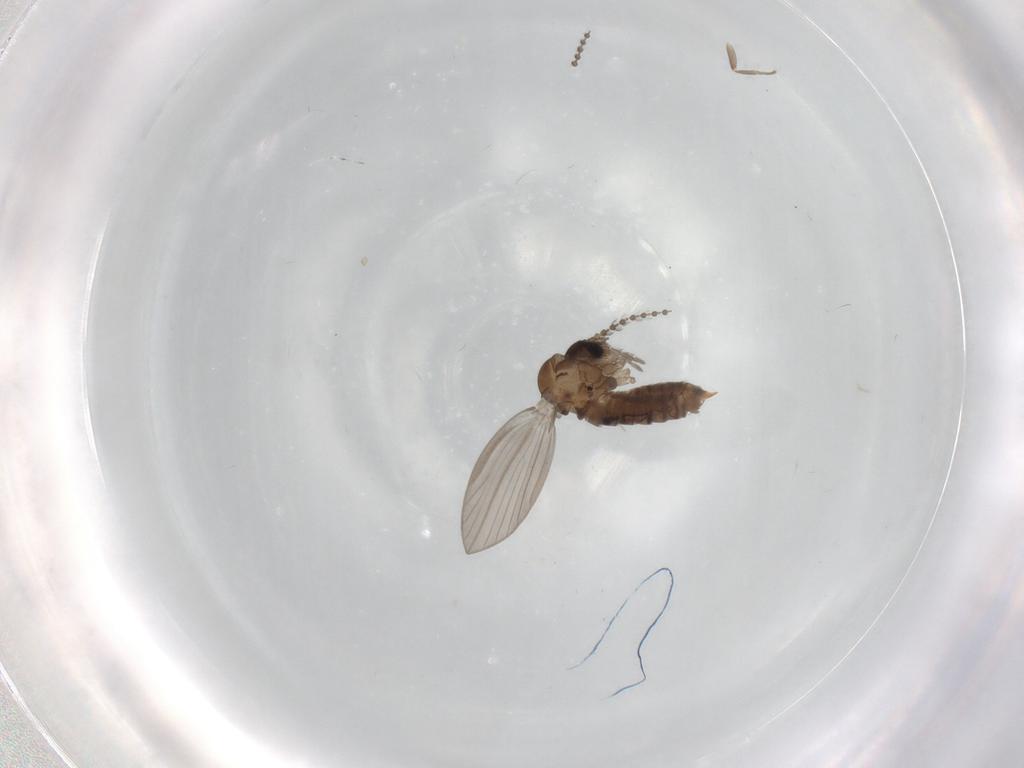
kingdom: Animalia
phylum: Arthropoda
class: Insecta
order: Diptera
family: Psychodidae
